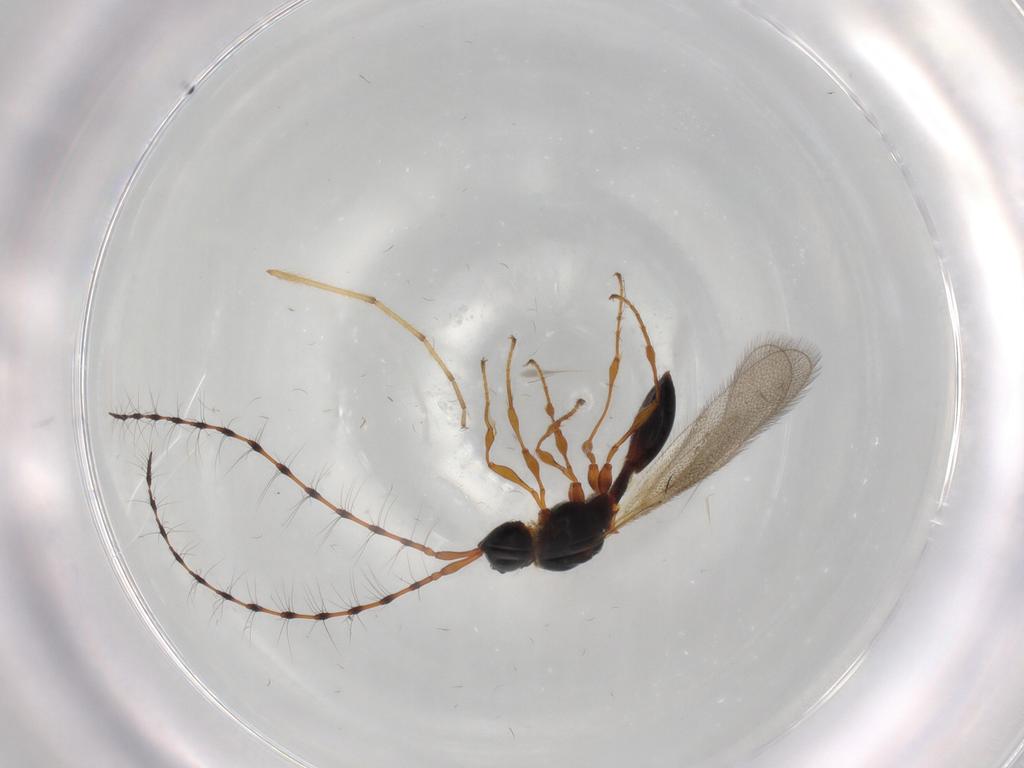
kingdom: Animalia
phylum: Arthropoda
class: Insecta
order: Hymenoptera
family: Diapriidae
